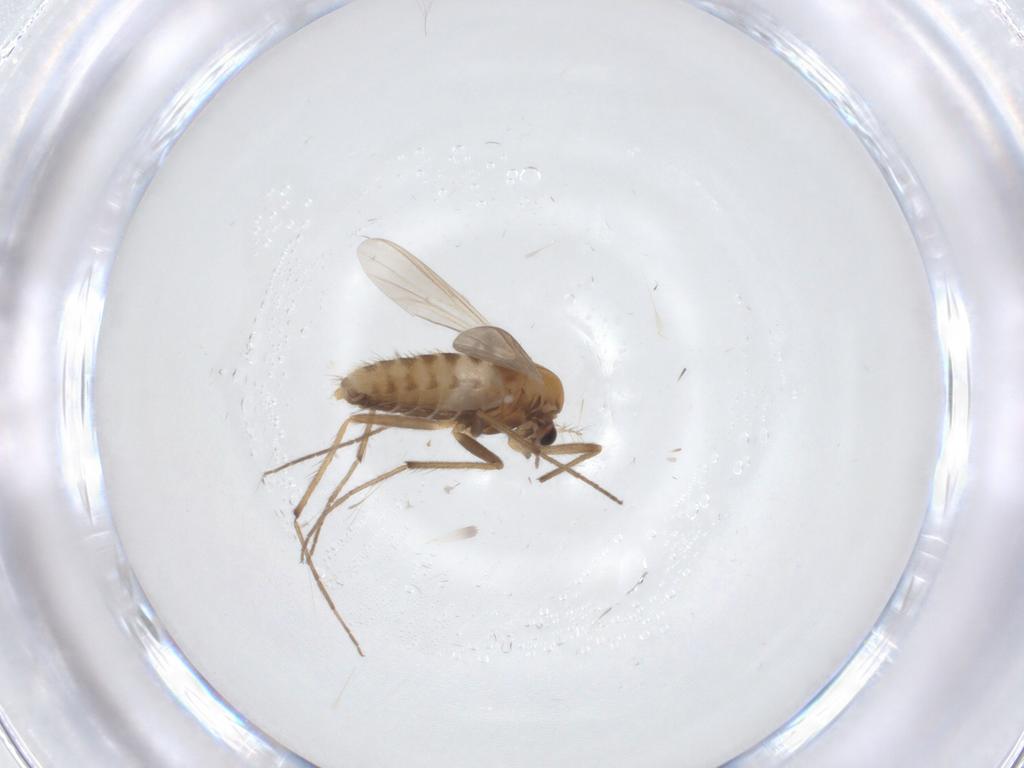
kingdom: Animalia
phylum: Arthropoda
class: Insecta
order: Diptera
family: Chironomidae
